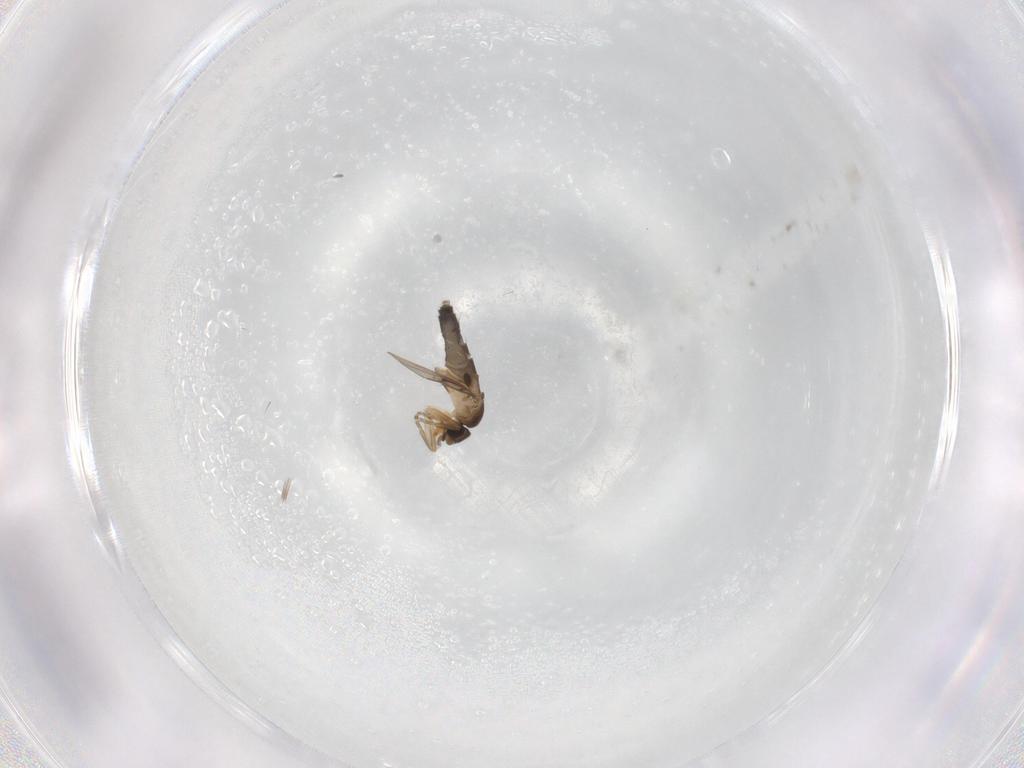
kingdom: Animalia
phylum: Arthropoda
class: Insecta
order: Diptera
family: Phoridae
